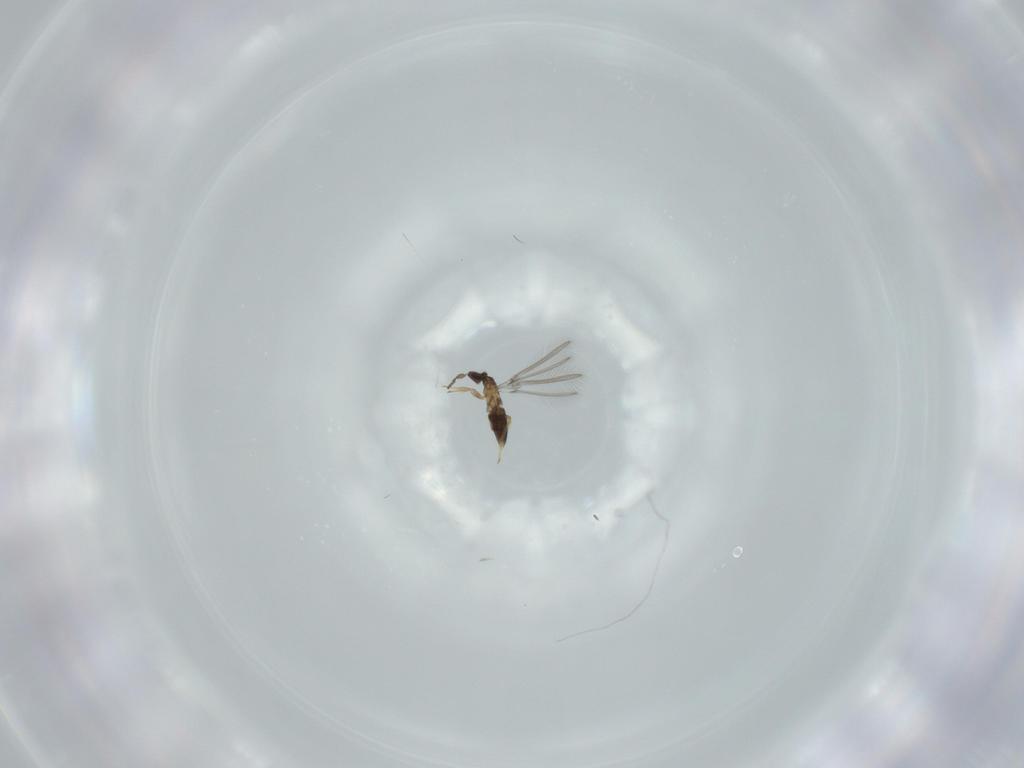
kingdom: Animalia
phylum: Arthropoda
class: Insecta
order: Hymenoptera
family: Mymaridae
